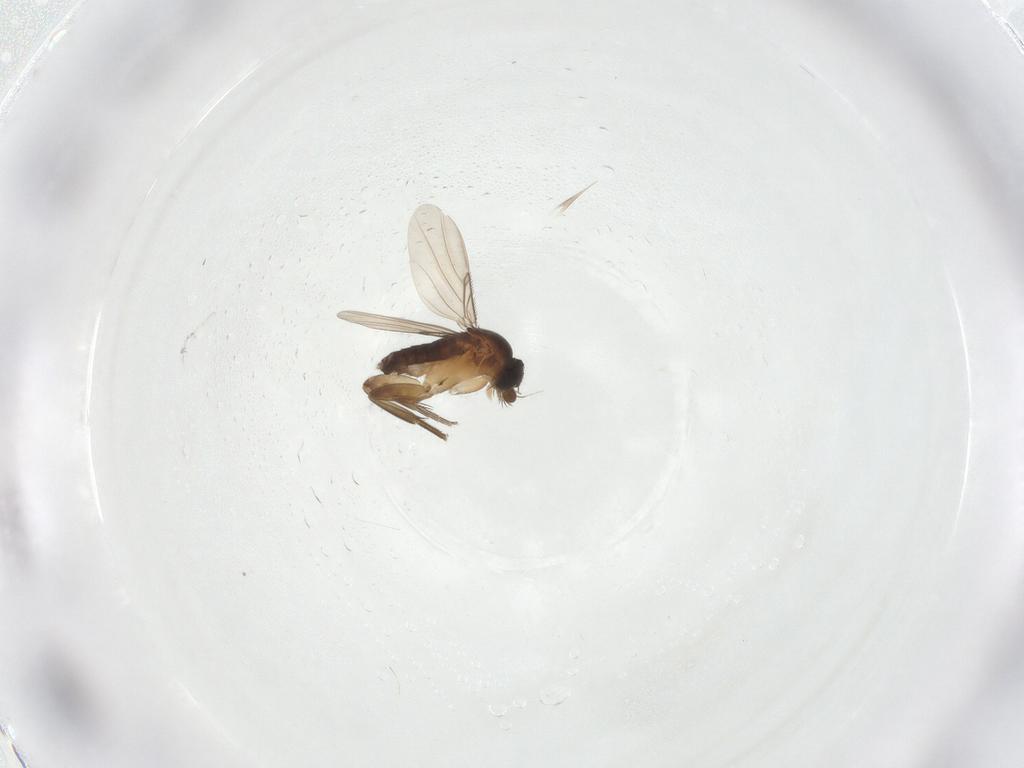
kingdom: Animalia
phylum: Arthropoda
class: Insecta
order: Diptera
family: Phoridae
